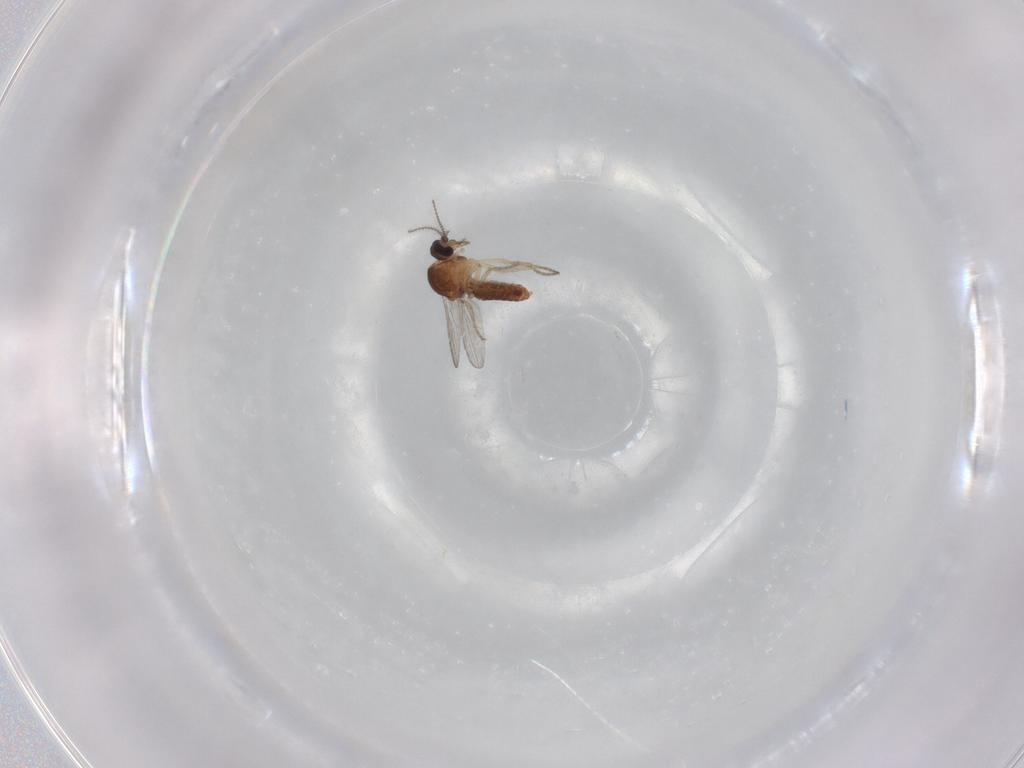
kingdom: Animalia
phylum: Arthropoda
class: Insecta
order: Diptera
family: Ceratopogonidae
